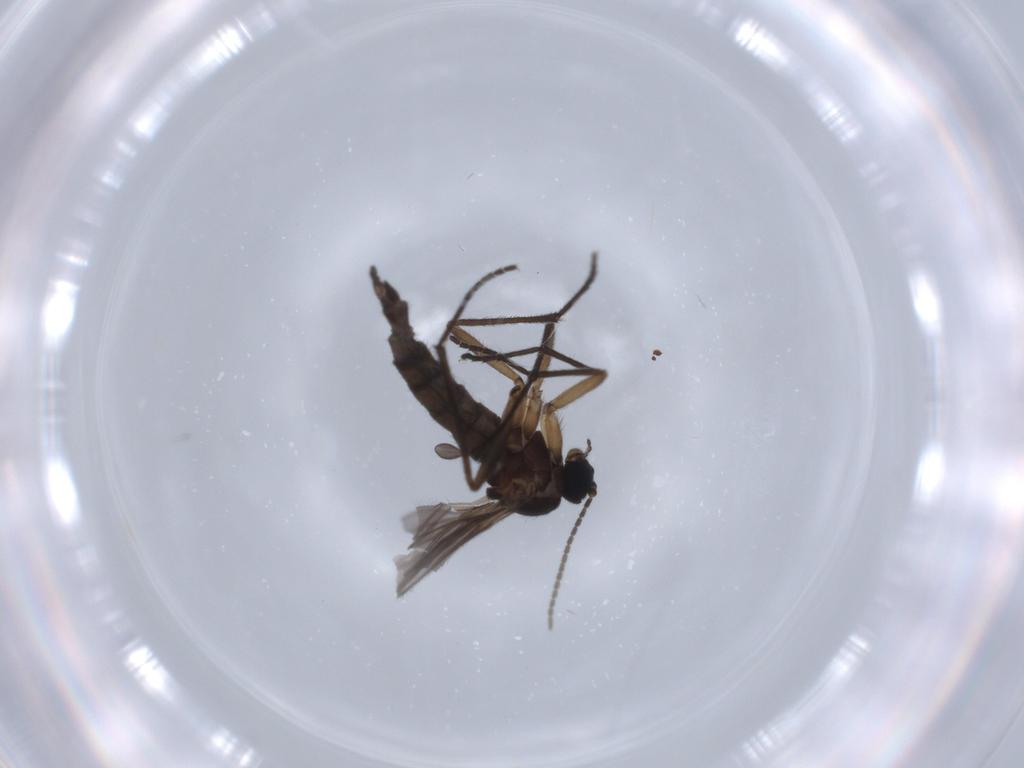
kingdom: Animalia
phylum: Arthropoda
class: Insecta
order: Diptera
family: Sciaridae
